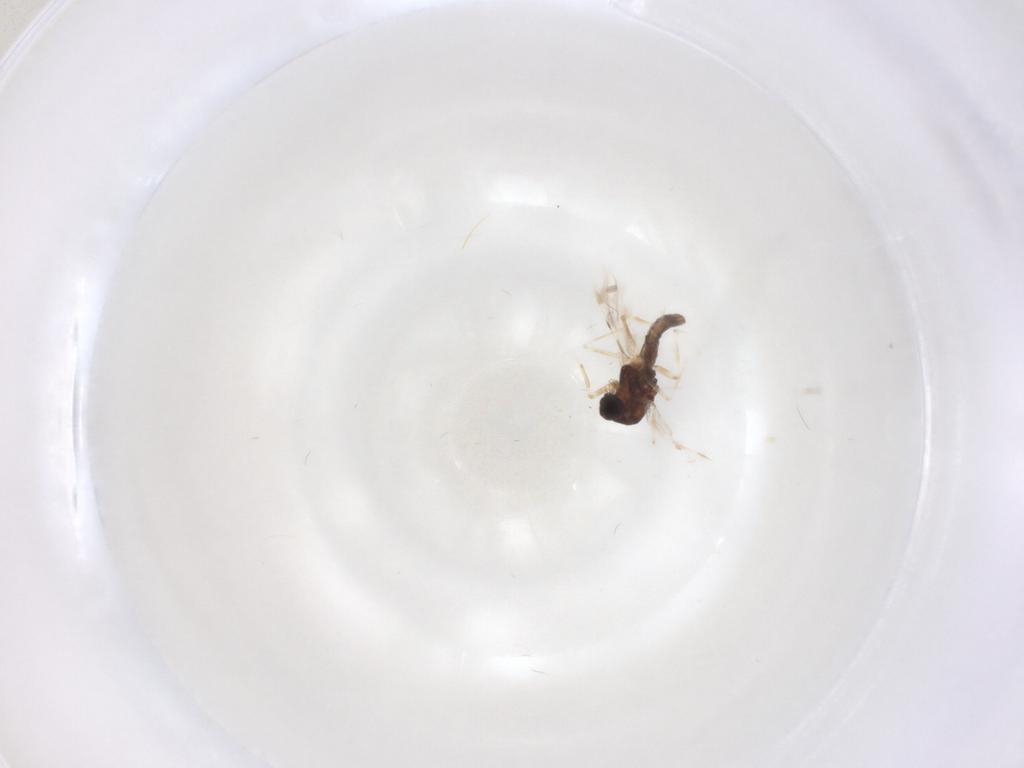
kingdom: Animalia
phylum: Arthropoda
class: Insecta
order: Diptera
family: Ceratopogonidae
